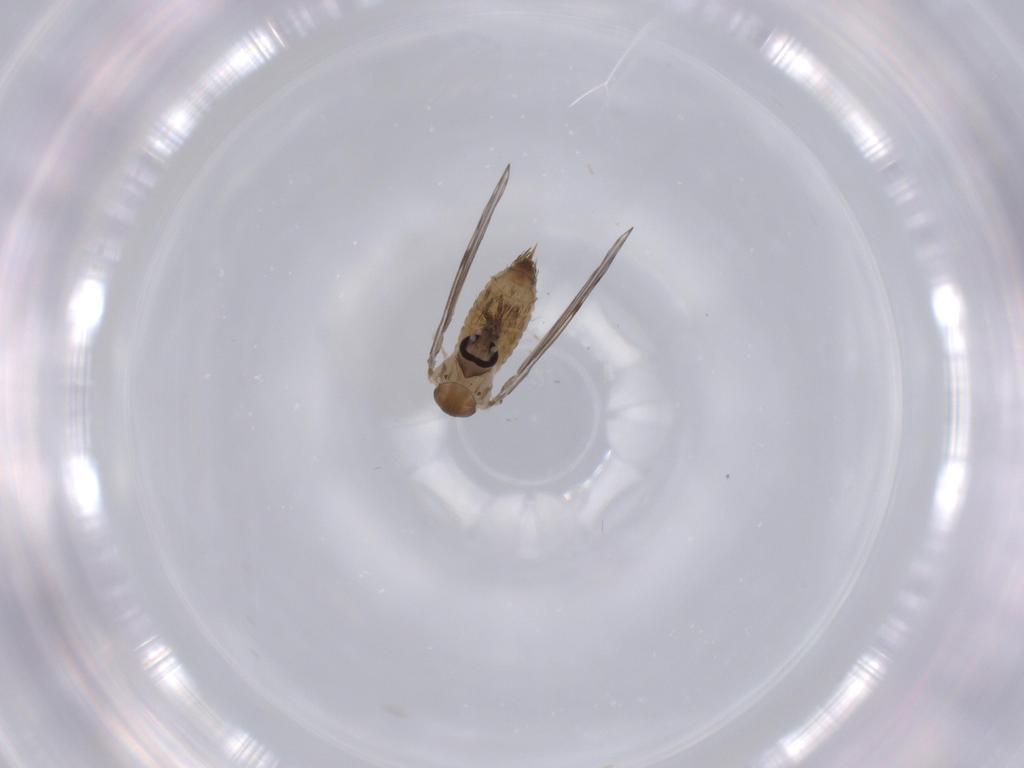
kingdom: Animalia
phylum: Arthropoda
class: Insecta
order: Diptera
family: Psychodidae
